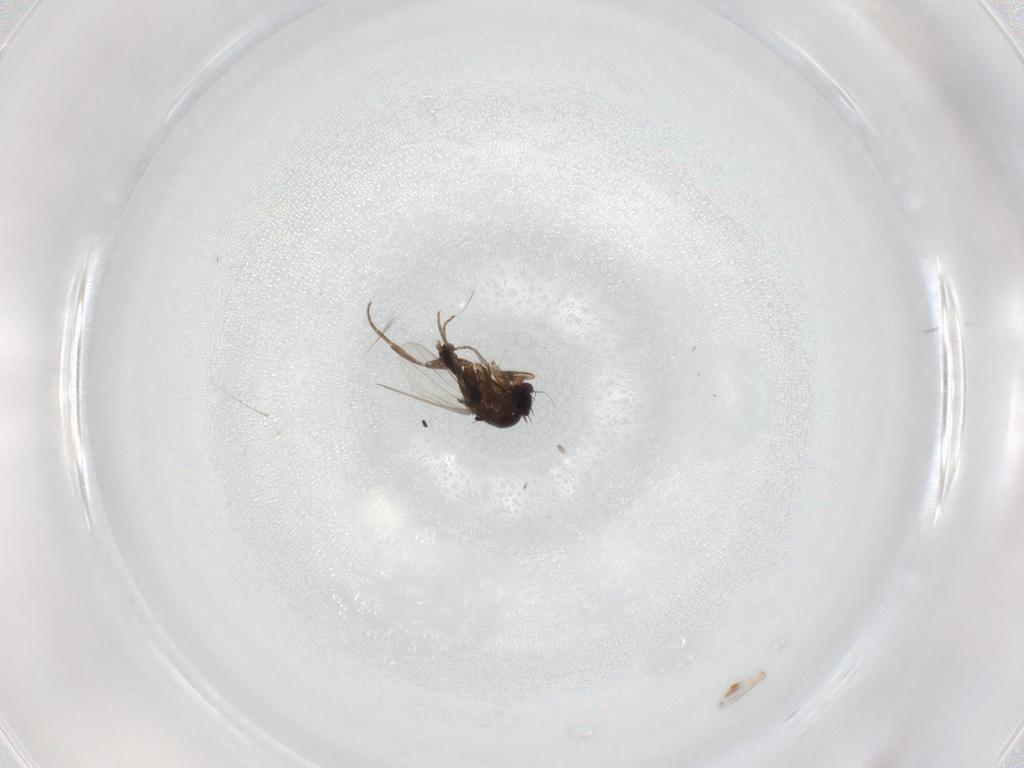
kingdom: Animalia
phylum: Arthropoda
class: Insecta
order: Diptera
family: Phoridae
